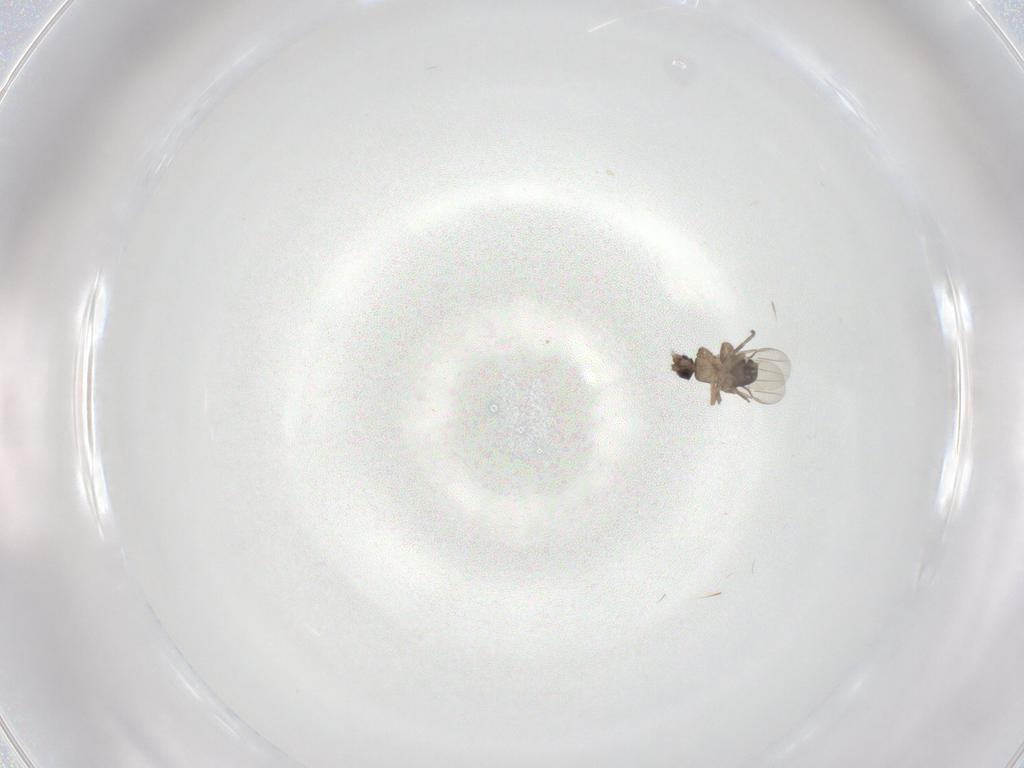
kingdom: Animalia
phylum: Arthropoda
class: Insecta
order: Diptera
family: Phoridae
